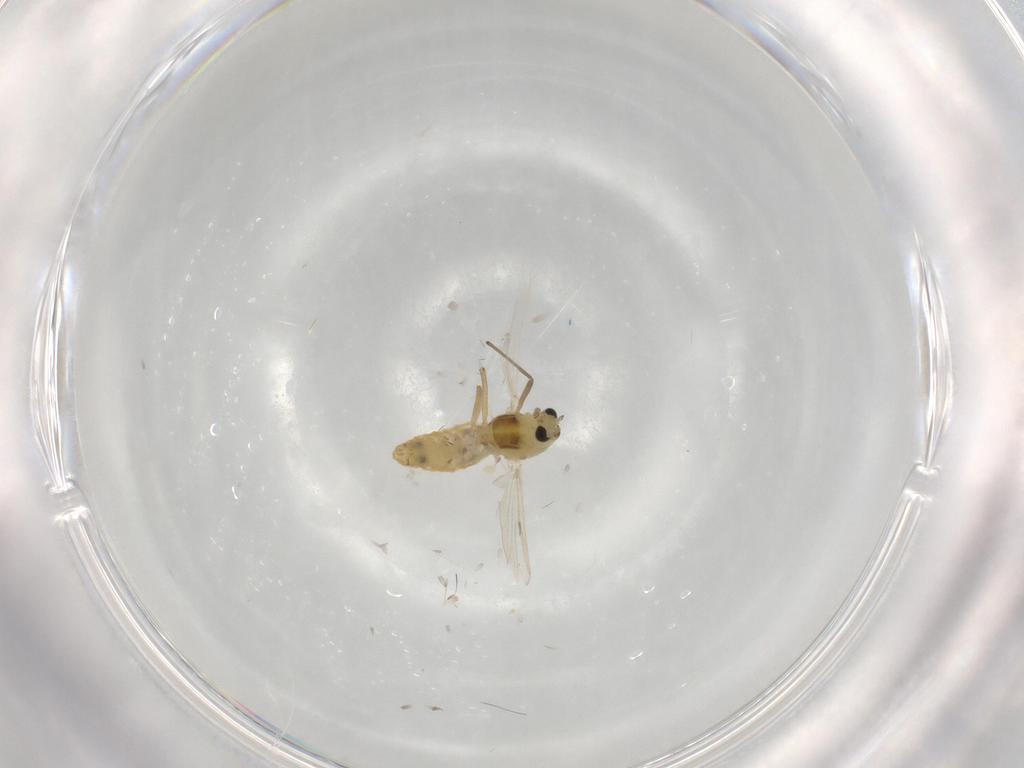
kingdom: Animalia
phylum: Arthropoda
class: Insecta
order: Diptera
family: Chironomidae
